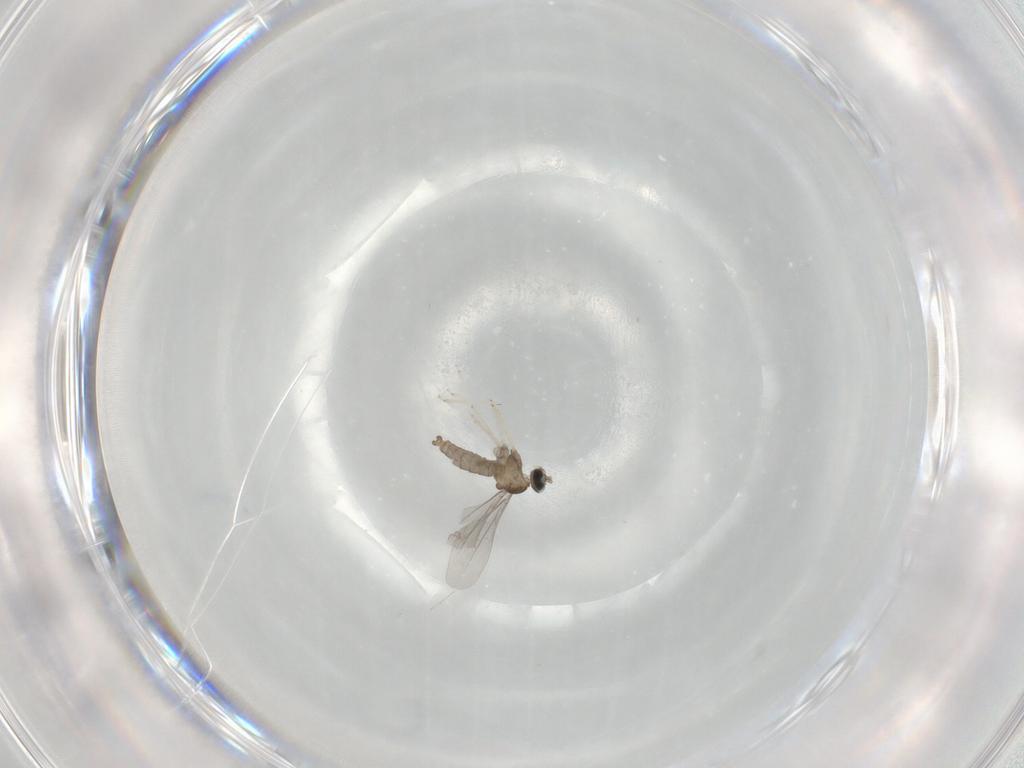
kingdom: Animalia
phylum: Arthropoda
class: Insecta
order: Diptera
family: Cecidomyiidae
